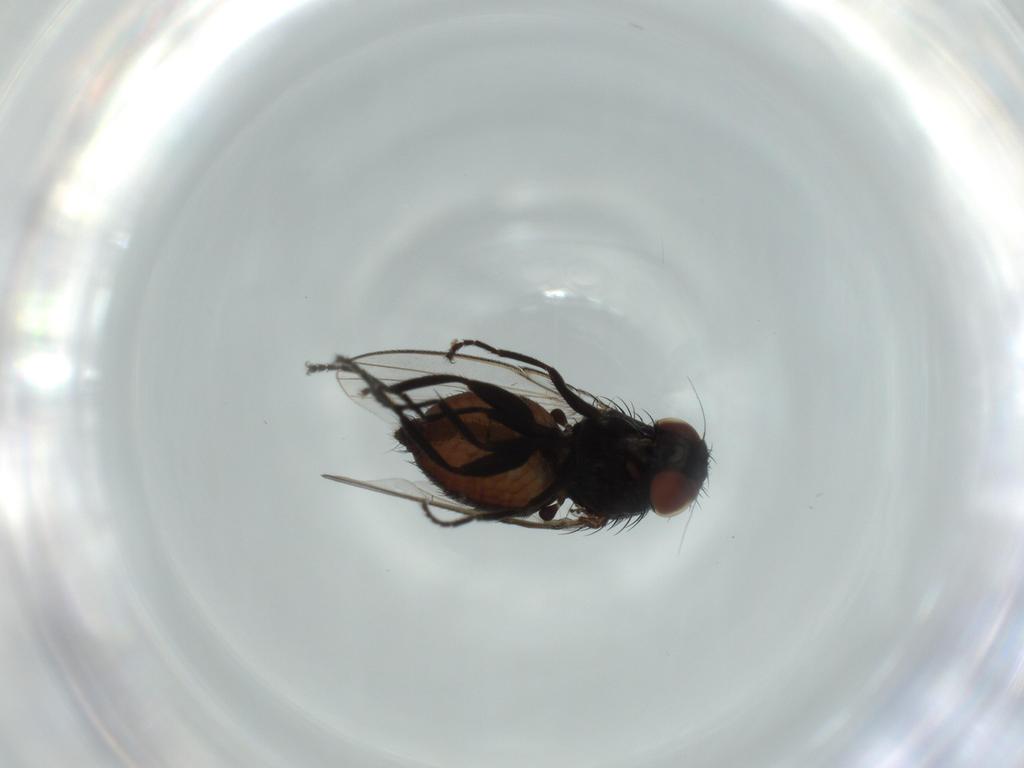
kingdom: Animalia
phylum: Arthropoda
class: Insecta
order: Diptera
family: Milichiidae
